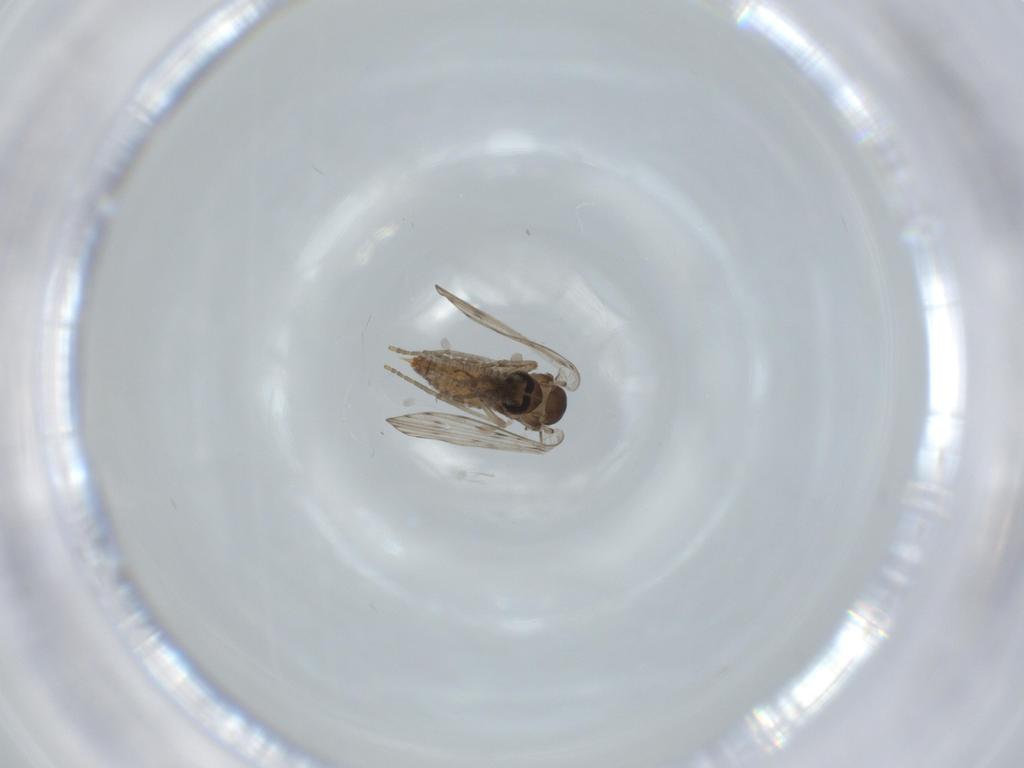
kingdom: Animalia
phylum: Arthropoda
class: Insecta
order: Diptera
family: Psychodidae
